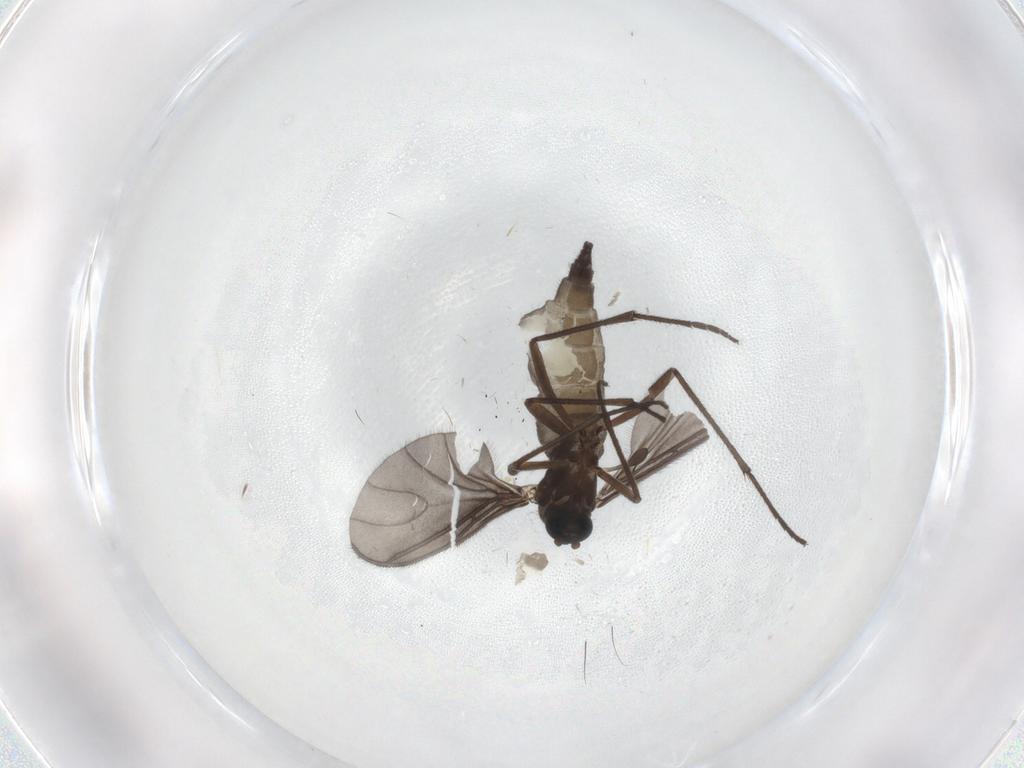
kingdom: Animalia
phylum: Arthropoda
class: Insecta
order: Diptera
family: Sciaridae
